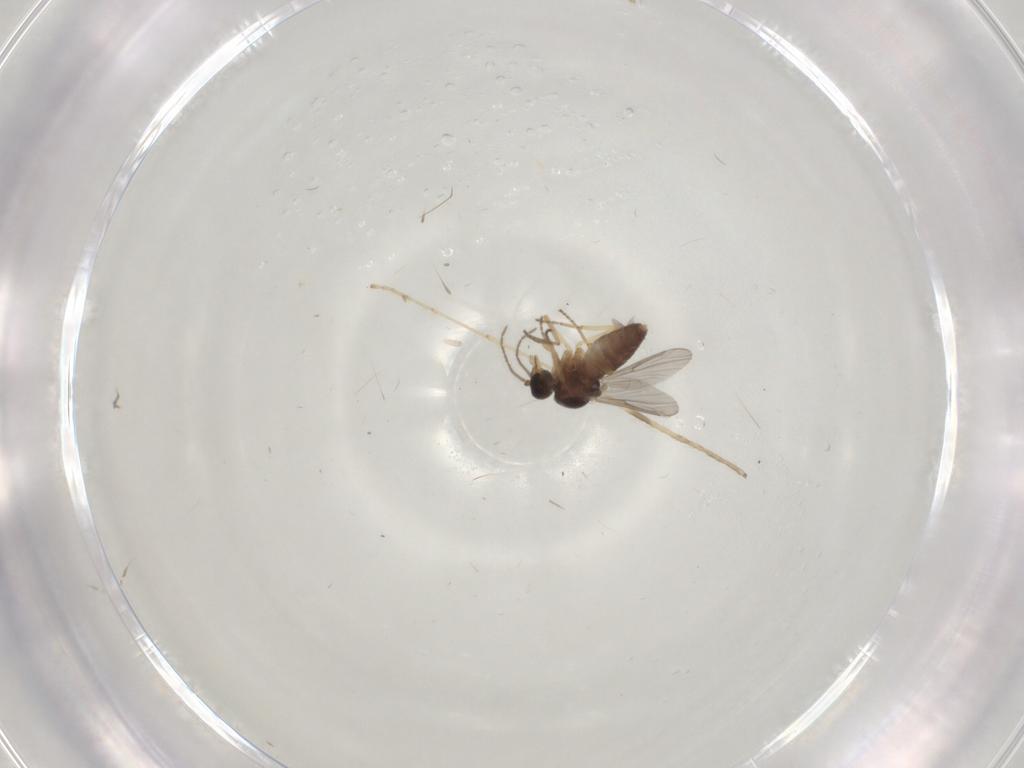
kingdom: Animalia
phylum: Arthropoda
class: Insecta
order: Diptera
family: Ceratopogonidae
